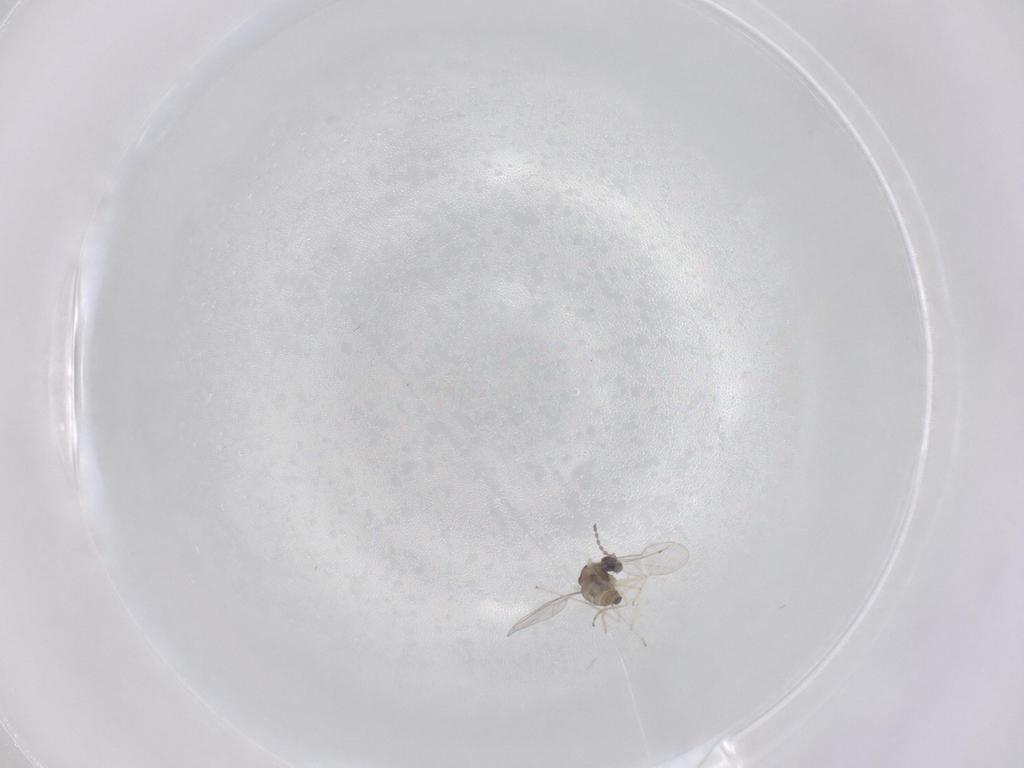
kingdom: Animalia
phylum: Arthropoda
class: Insecta
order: Diptera
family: Cecidomyiidae
